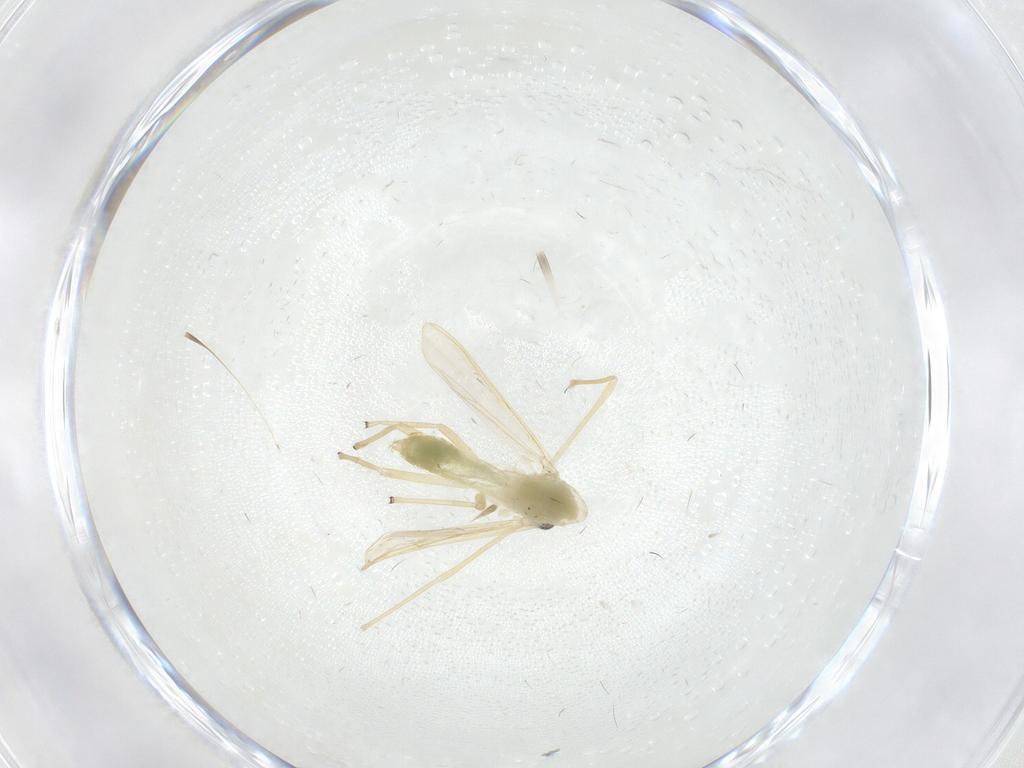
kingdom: Animalia
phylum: Arthropoda
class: Insecta
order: Diptera
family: Chironomidae
